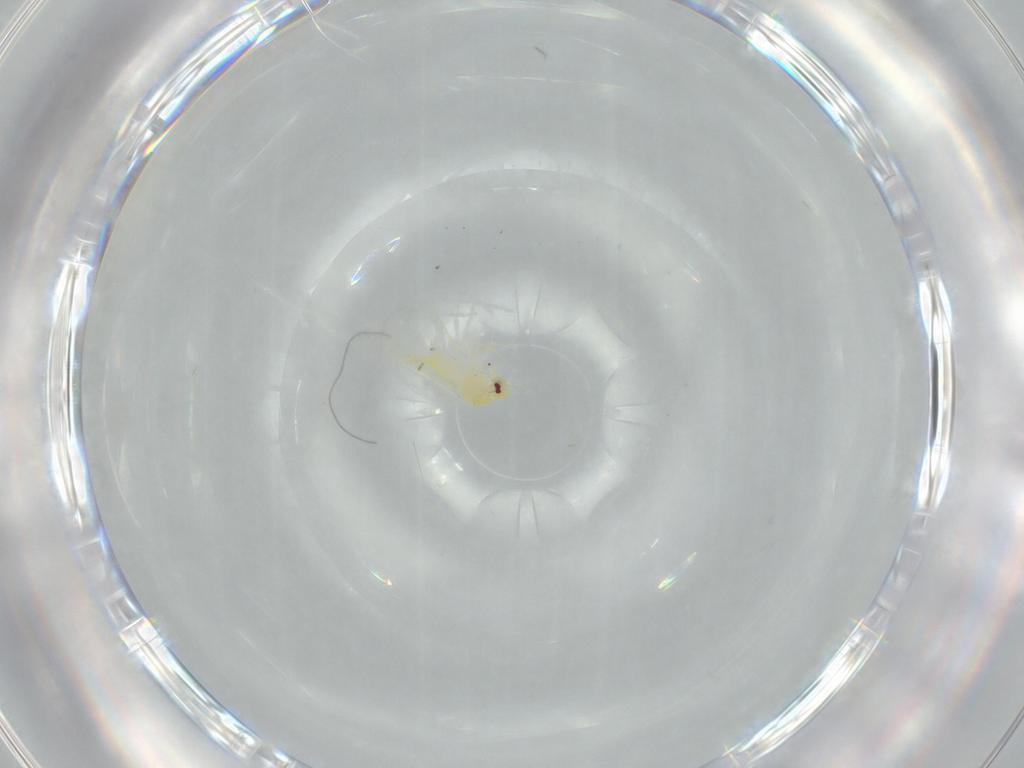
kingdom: Animalia
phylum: Arthropoda
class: Insecta
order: Hemiptera
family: Aleyrodidae
